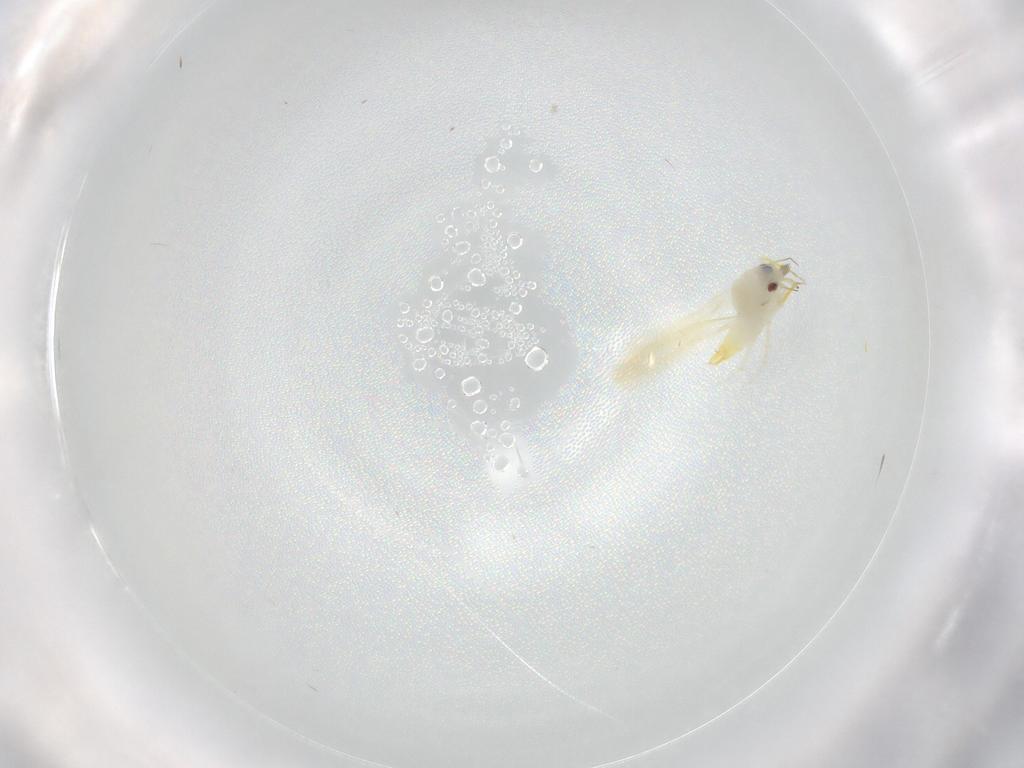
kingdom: Animalia
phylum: Arthropoda
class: Insecta
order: Hemiptera
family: Aleyrodidae
